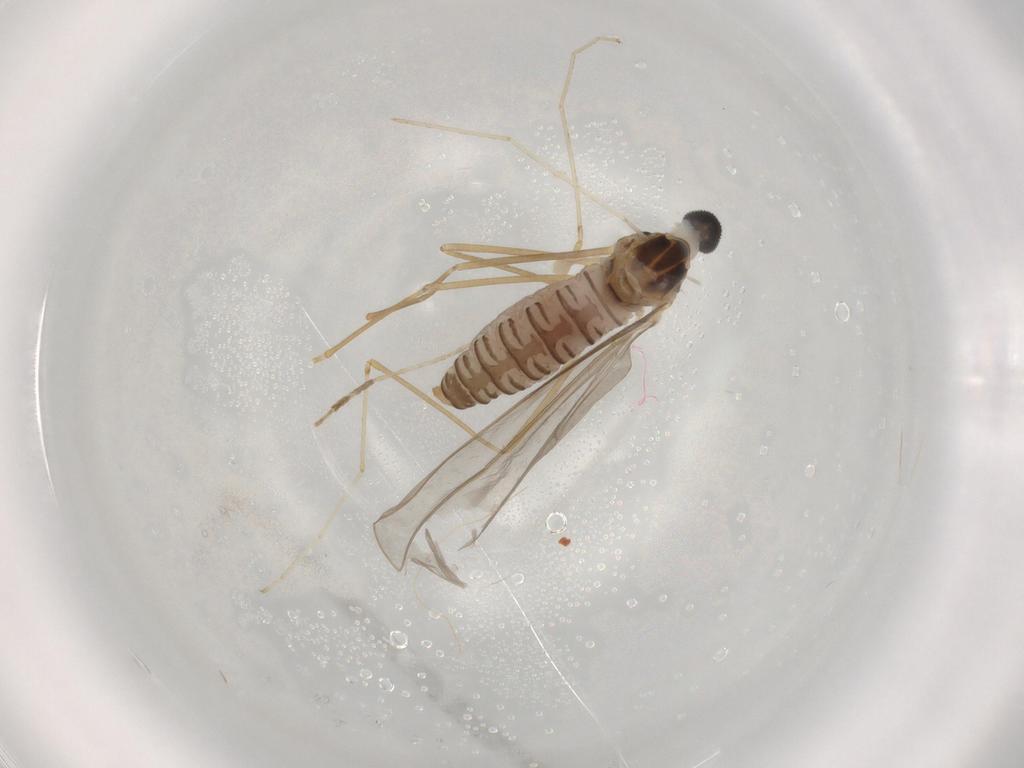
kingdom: Animalia
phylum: Arthropoda
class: Insecta
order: Diptera
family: Cecidomyiidae
